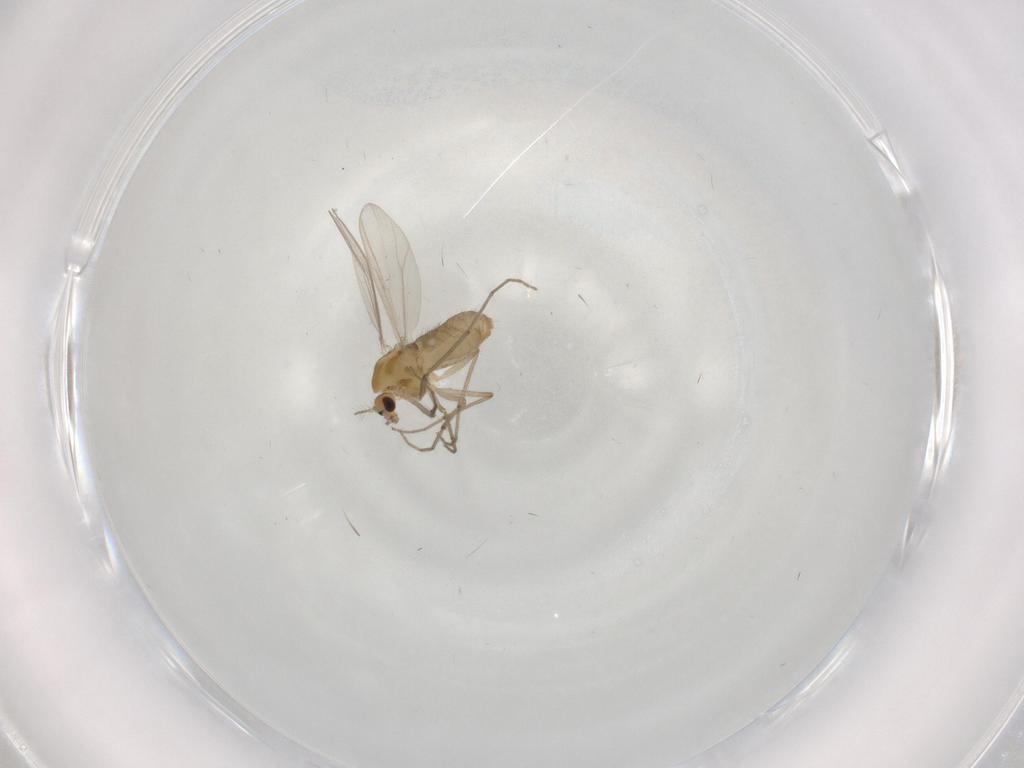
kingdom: Animalia
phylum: Arthropoda
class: Insecta
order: Diptera
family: Chironomidae
